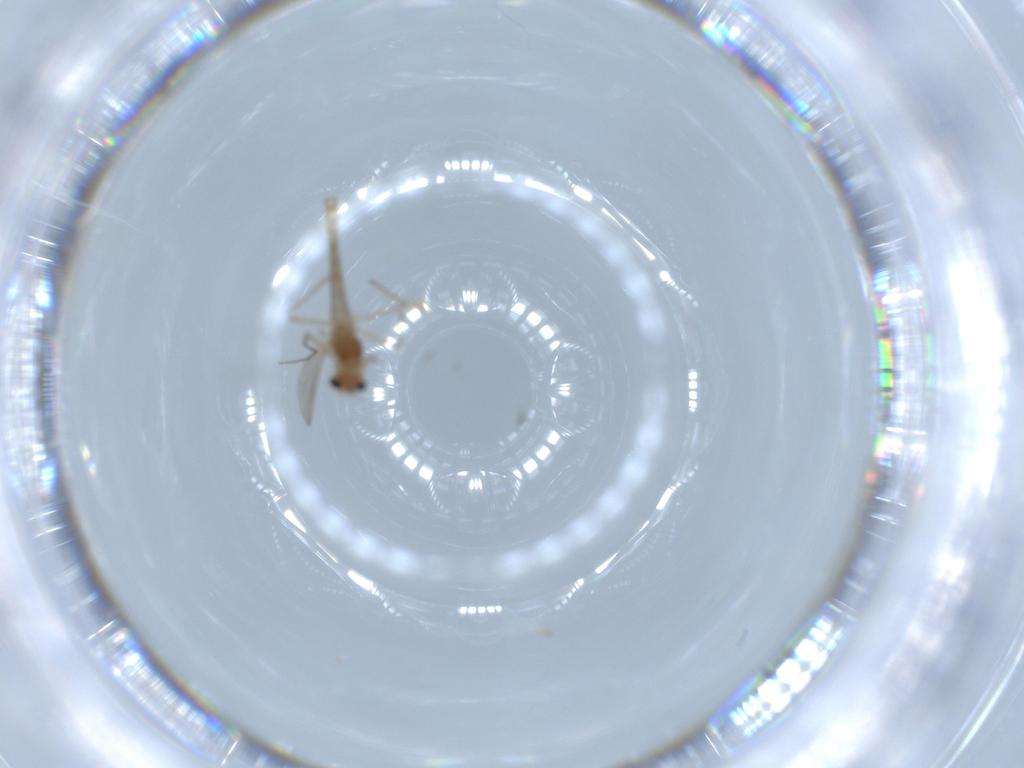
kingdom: Animalia
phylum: Arthropoda
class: Insecta
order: Diptera
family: Chironomidae
